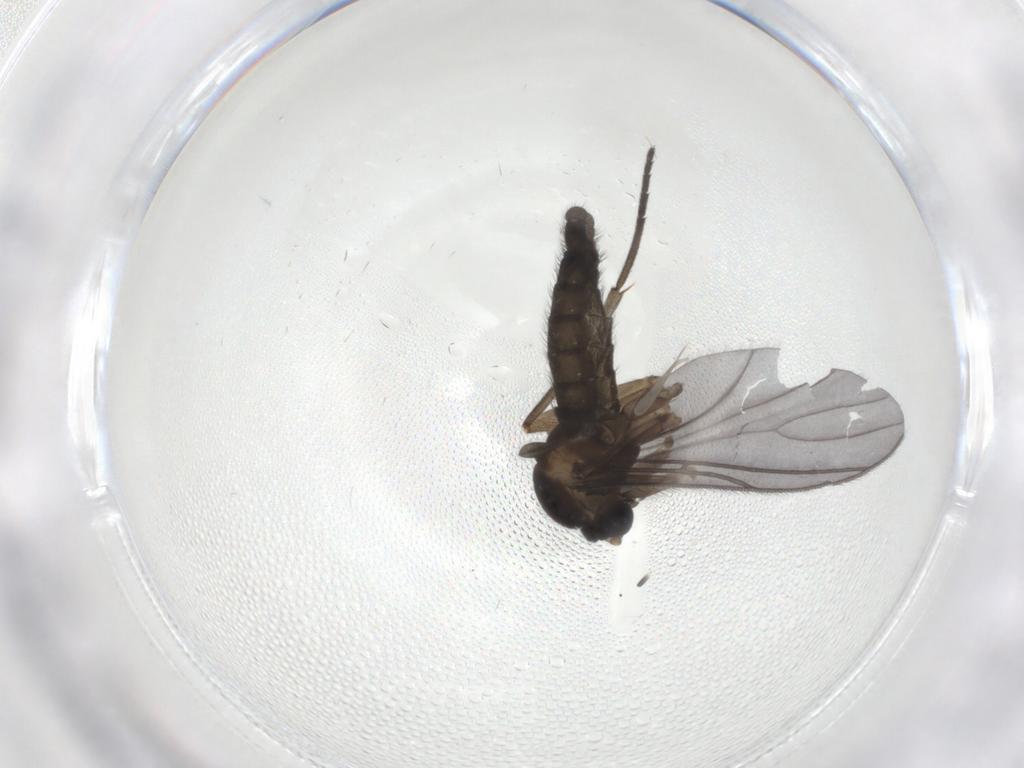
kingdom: Animalia
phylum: Arthropoda
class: Insecta
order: Diptera
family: Sciaridae
